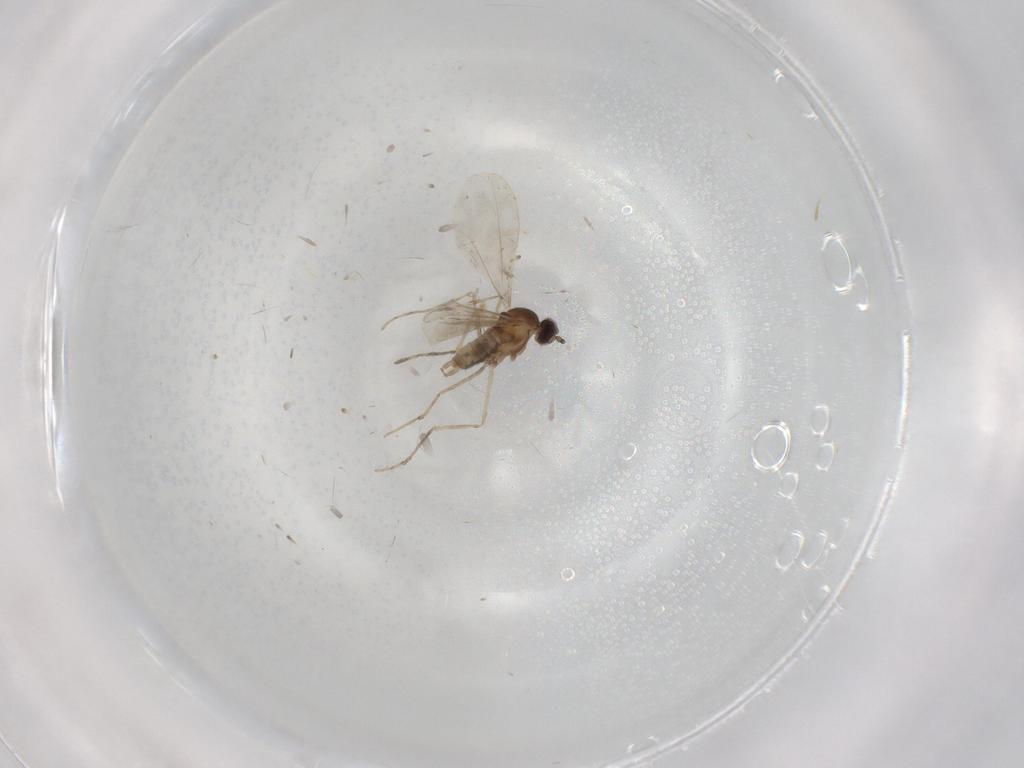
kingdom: Animalia
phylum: Arthropoda
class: Insecta
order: Diptera
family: Cecidomyiidae
